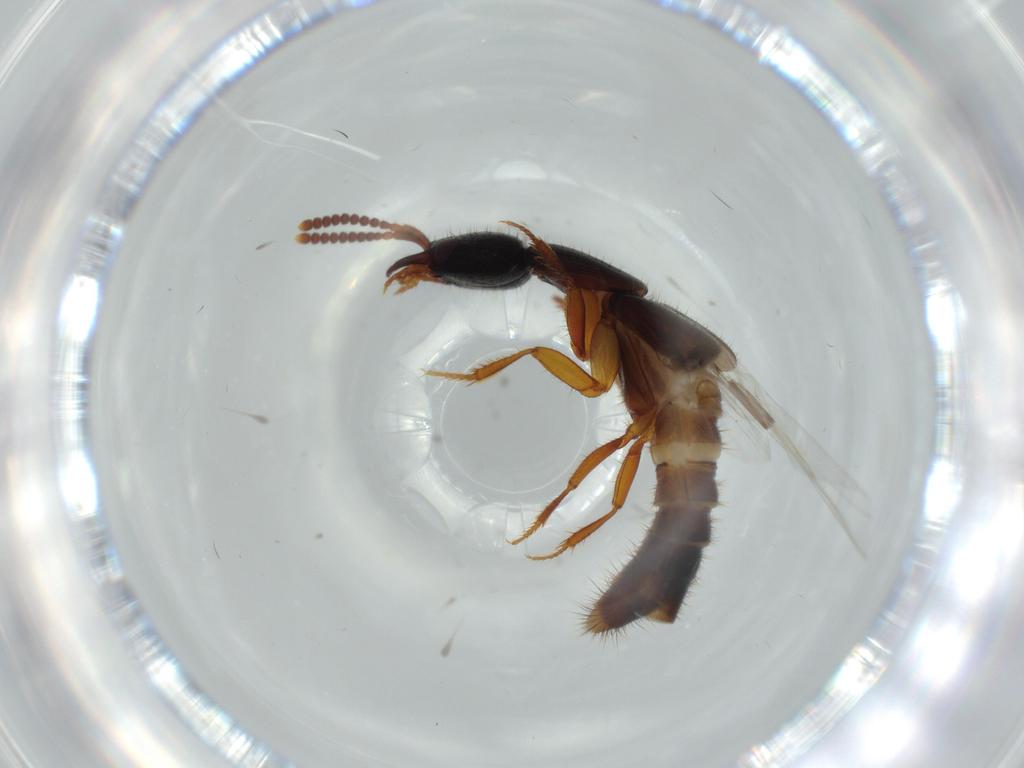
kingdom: Animalia
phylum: Arthropoda
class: Insecta
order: Coleoptera
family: Staphylinidae
